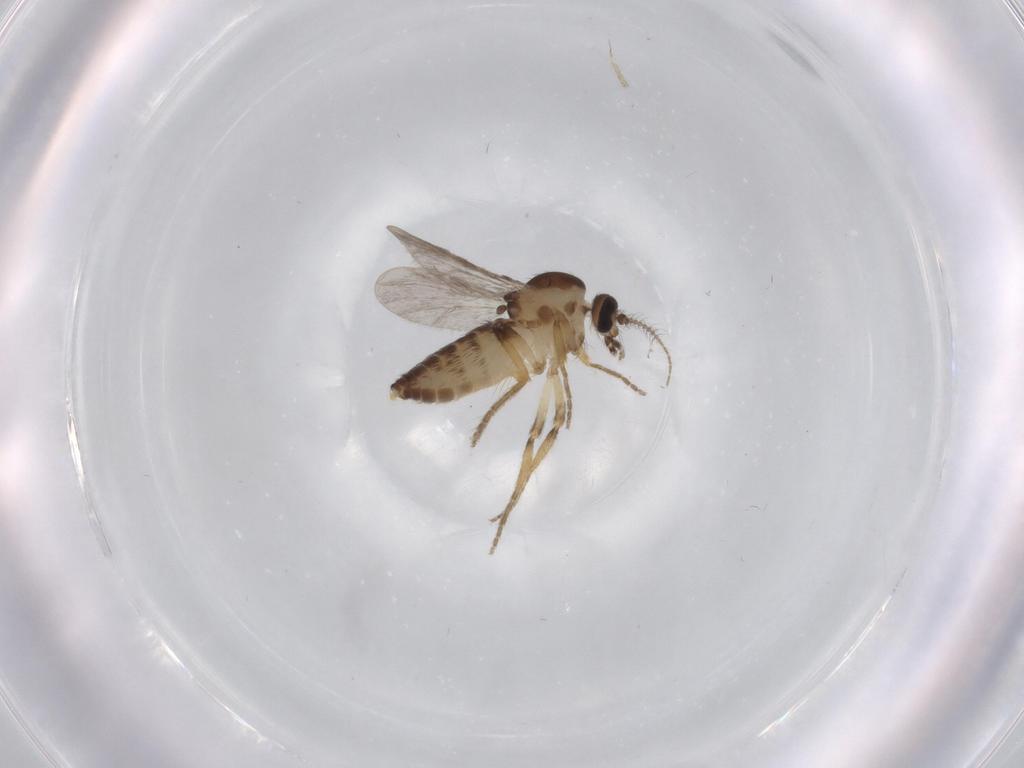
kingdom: Animalia
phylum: Arthropoda
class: Insecta
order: Diptera
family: Ceratopogonidae
